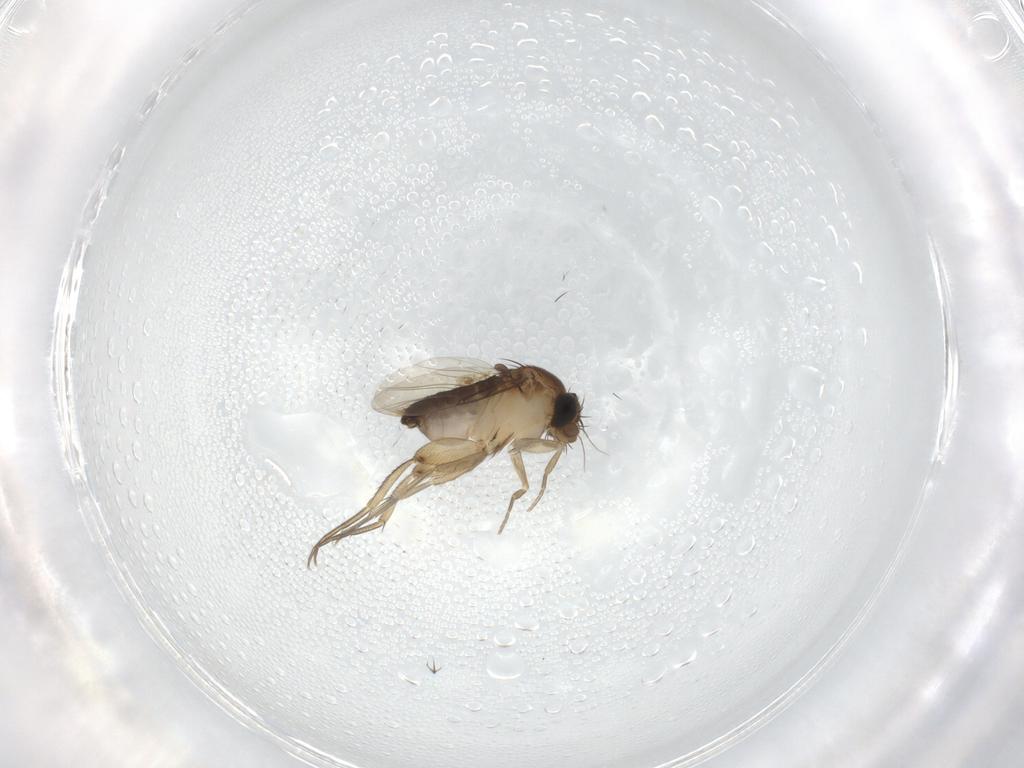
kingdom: Animalia
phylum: Arthropoda
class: Insecta
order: Diptera
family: Phoridae
